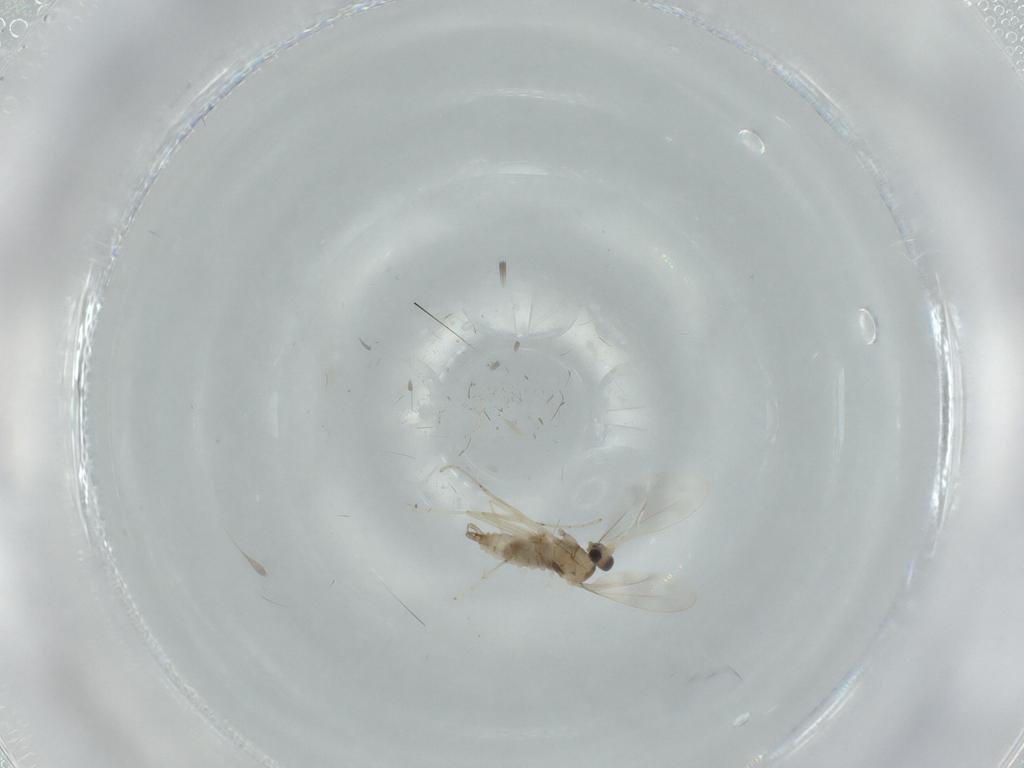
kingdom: Animalia
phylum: Arthropoda
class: Insecta
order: Diptera
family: Cecidomyiidae
